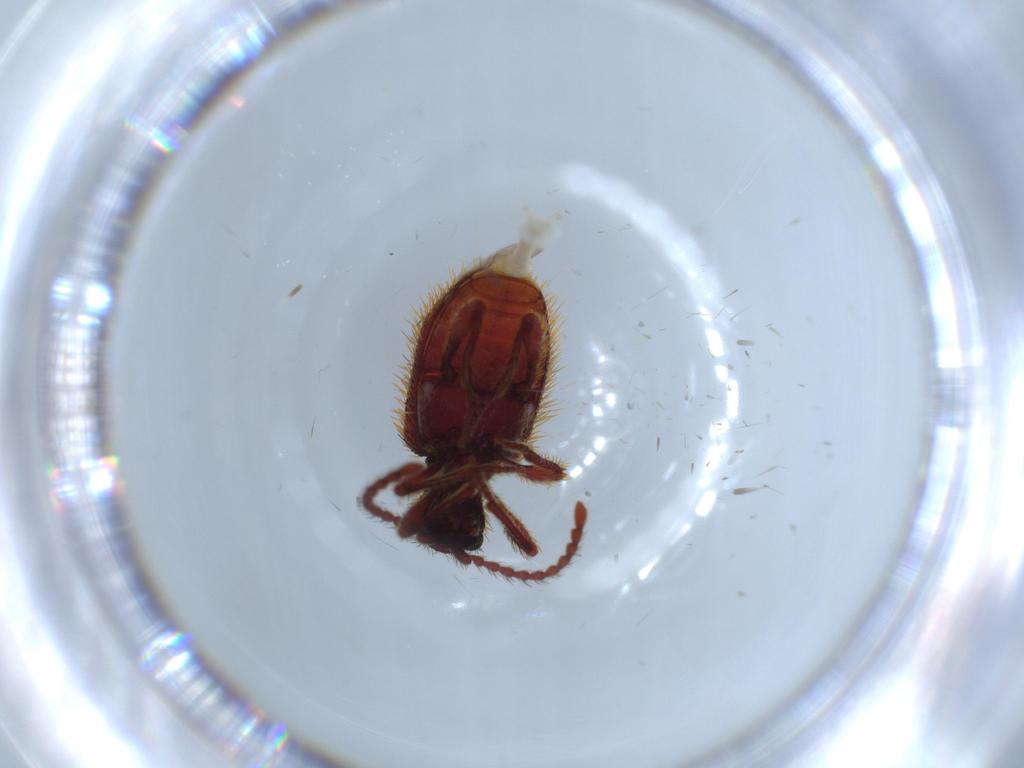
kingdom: Animalia
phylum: Arthropoda
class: Insecta
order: Coleoptera
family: Ptinidae
